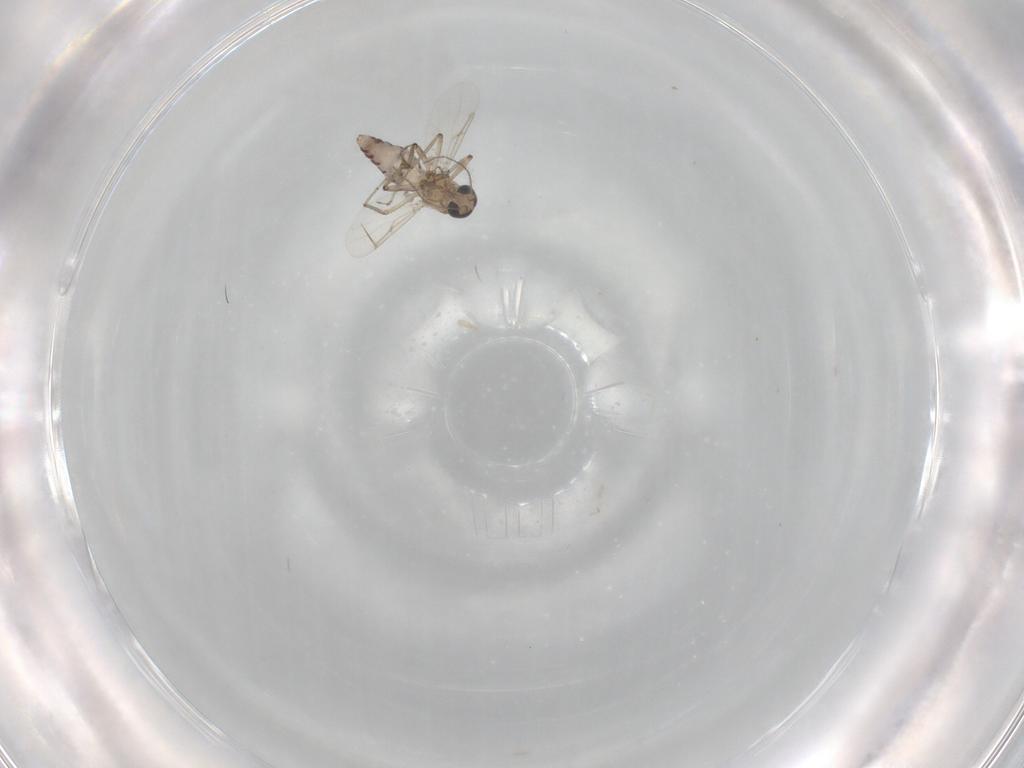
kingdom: Animalia
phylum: Arthropoda
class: Insecta
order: Diptera
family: Ceratopogonidae
